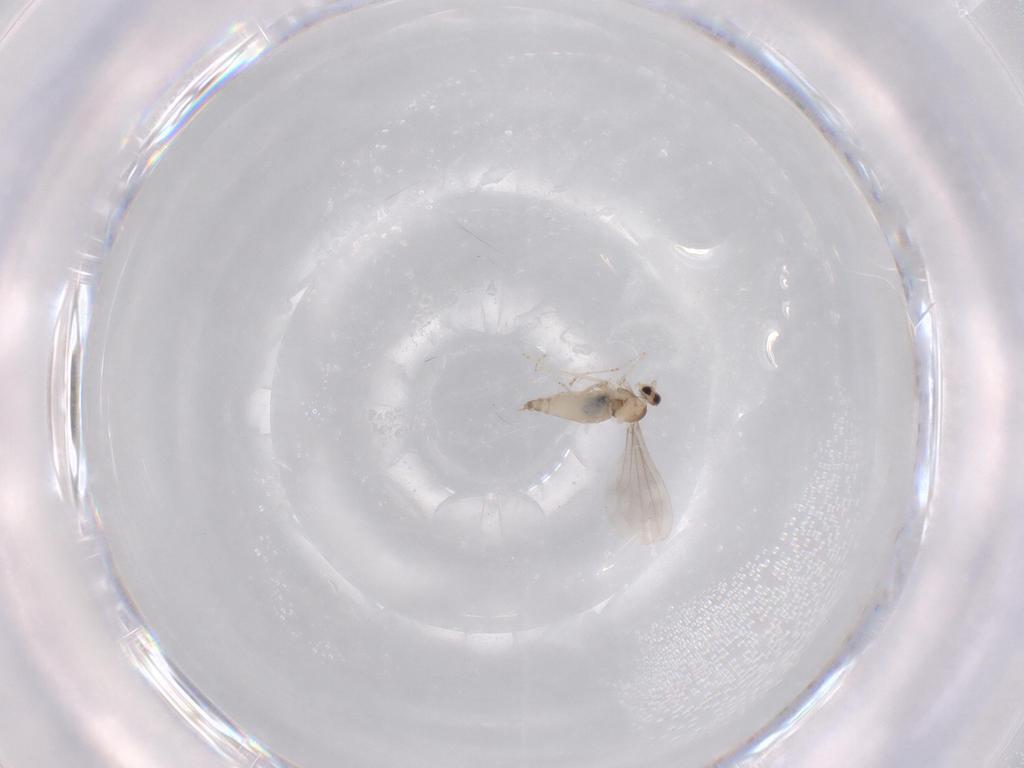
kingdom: Animalia
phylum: Arthropoda
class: Insecta
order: Diptera
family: Cecidomyiidae
